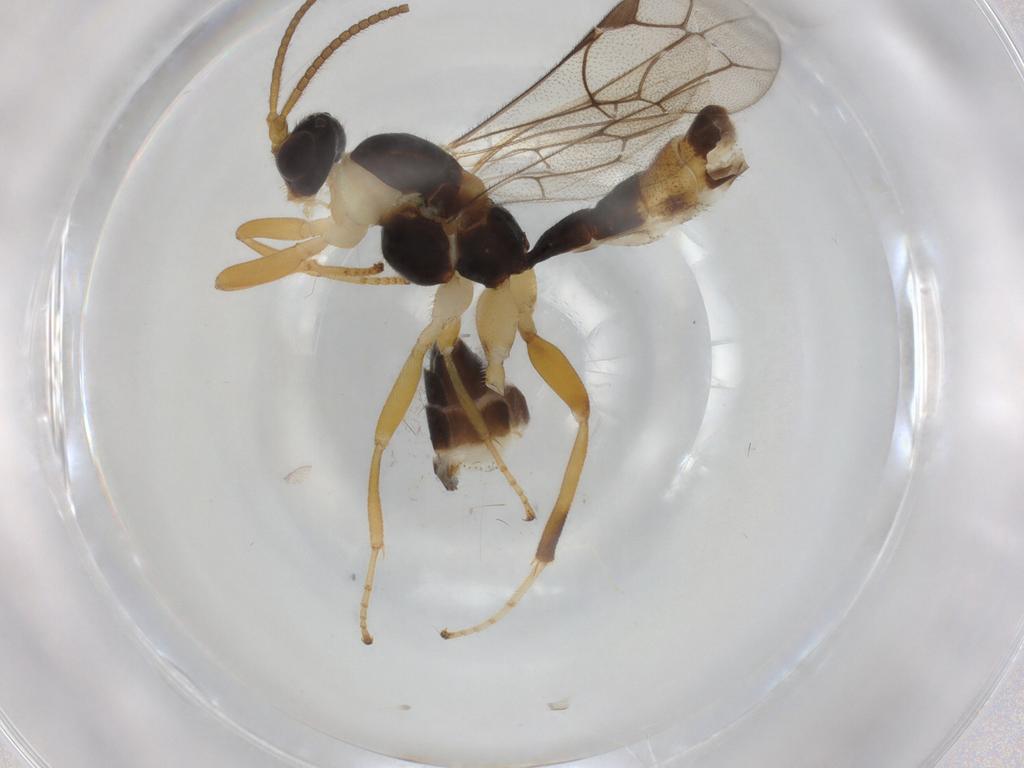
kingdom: Animalia
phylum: Arthropoda
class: Insecta
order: Hymenoptera
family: Ichneumonidae
